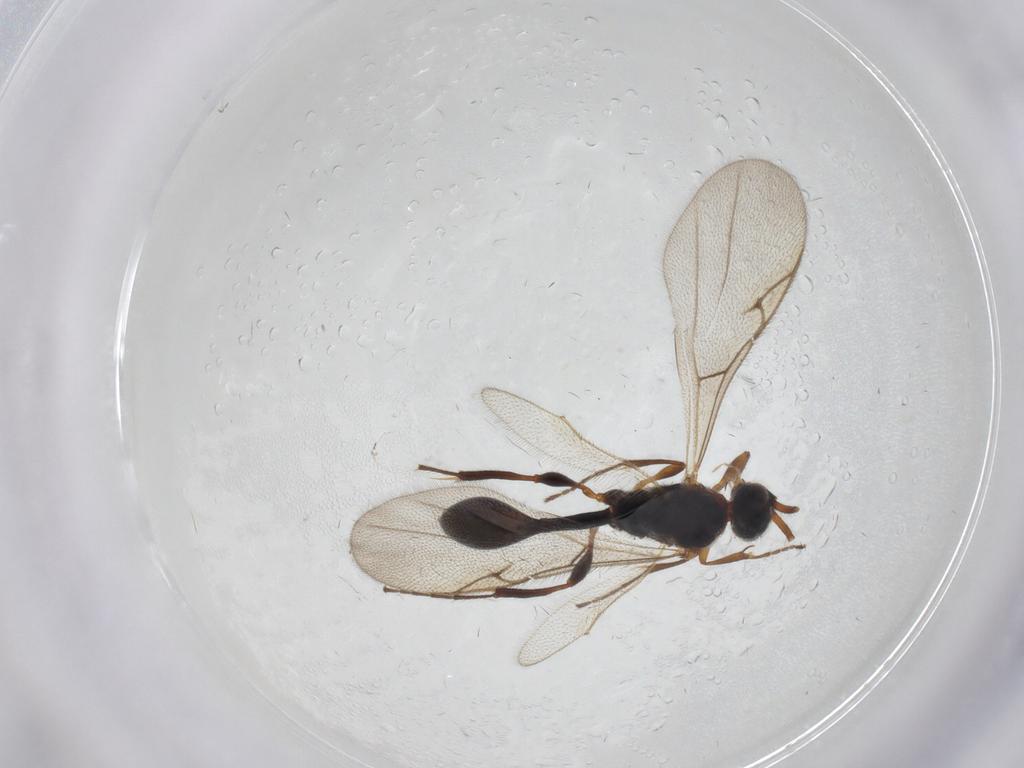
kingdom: Animalia
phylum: Arthropoda
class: Insecta
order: Hymenoptera
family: Diapriidae
